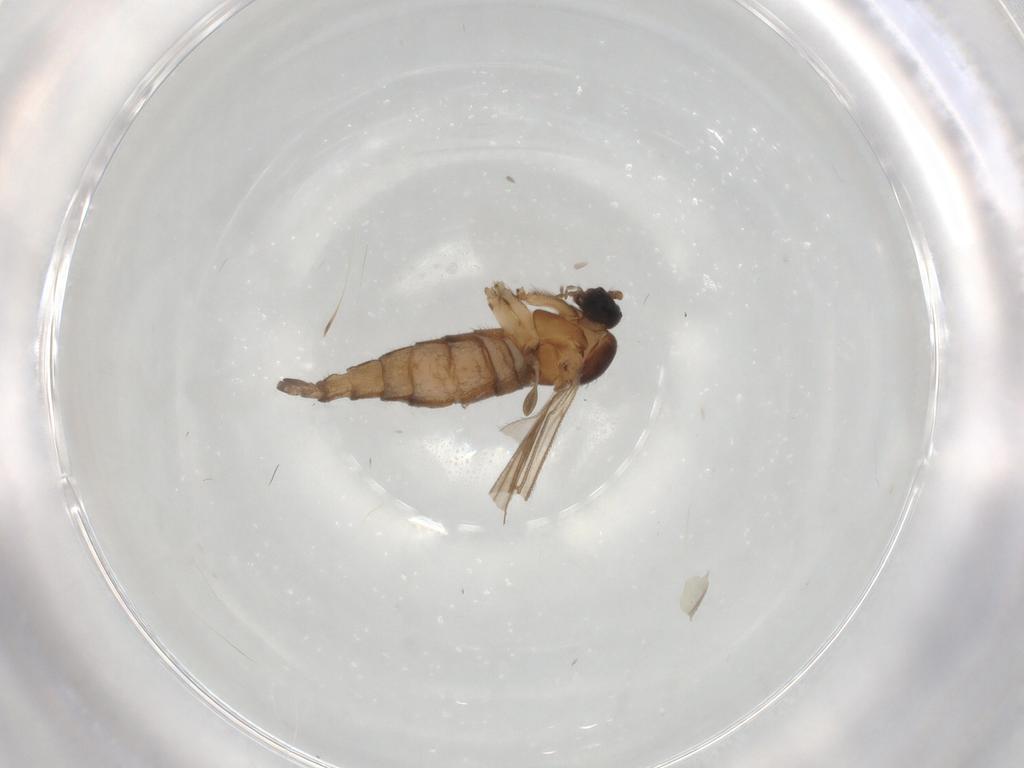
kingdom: Animalia
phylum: Arthropoda
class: Insecta
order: Diptera
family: Sciaridae
